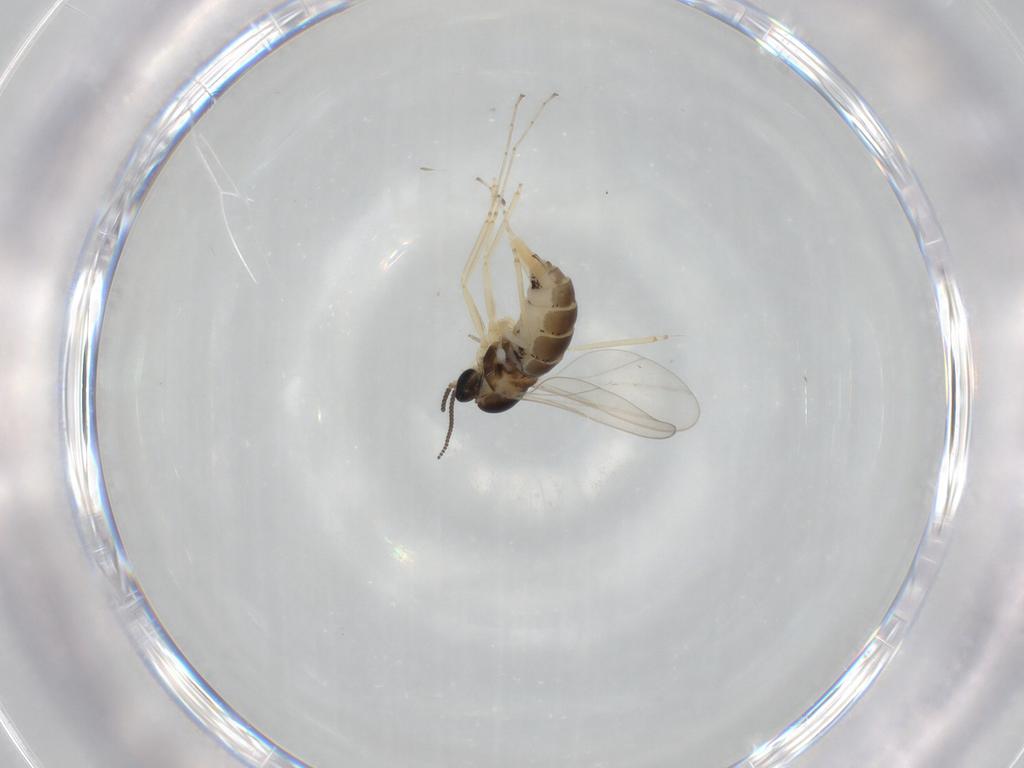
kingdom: Animalia
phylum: Arthropoda
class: Insecta
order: Diptera
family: Cecidomyiidae
